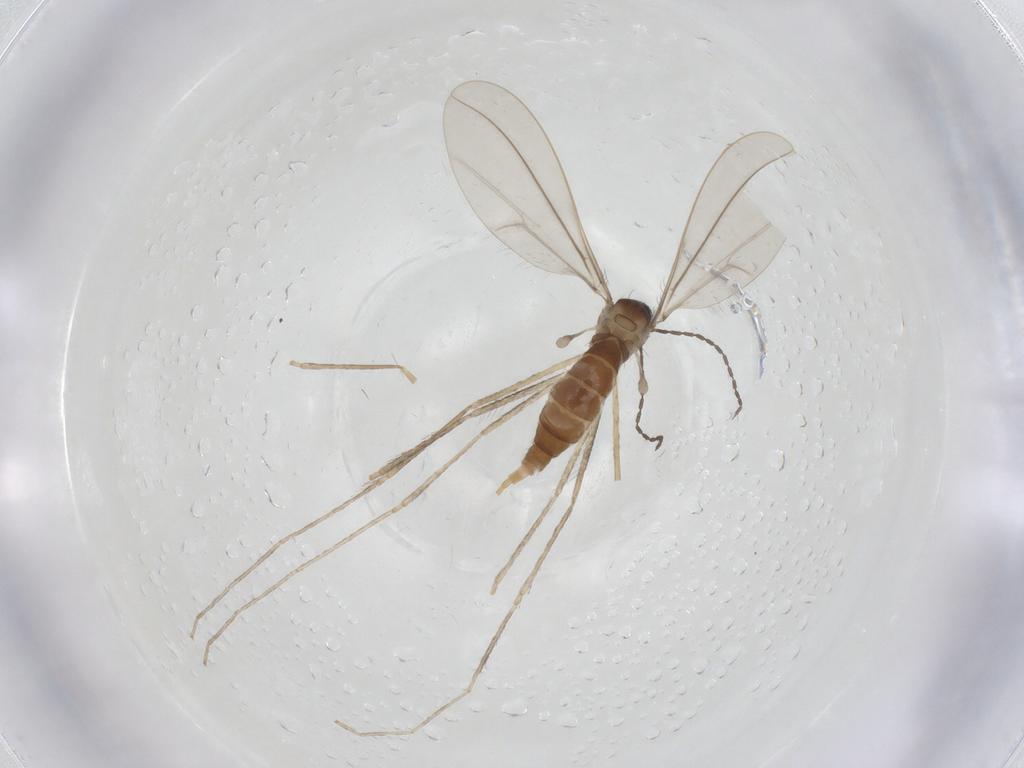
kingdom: Animalia
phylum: Arthropoda
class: Insecta
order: Diptera
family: Cecidomyiidae
